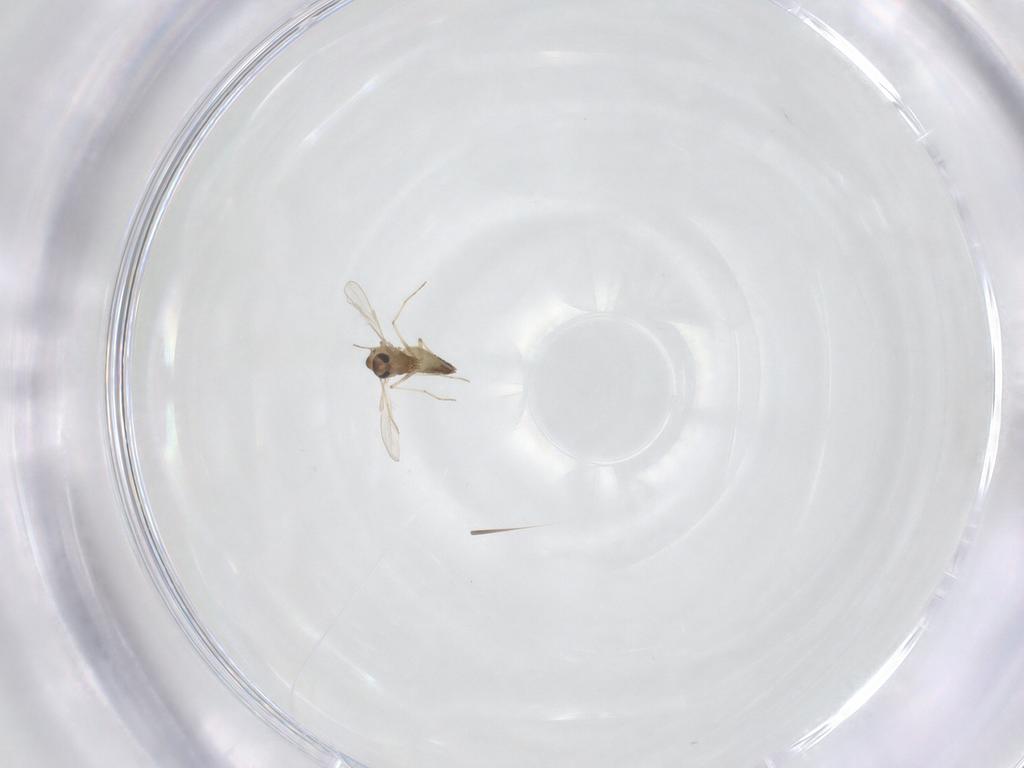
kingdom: Animalia
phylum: Arthropoda
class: Insecta
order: Diptera
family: Chironomidae
